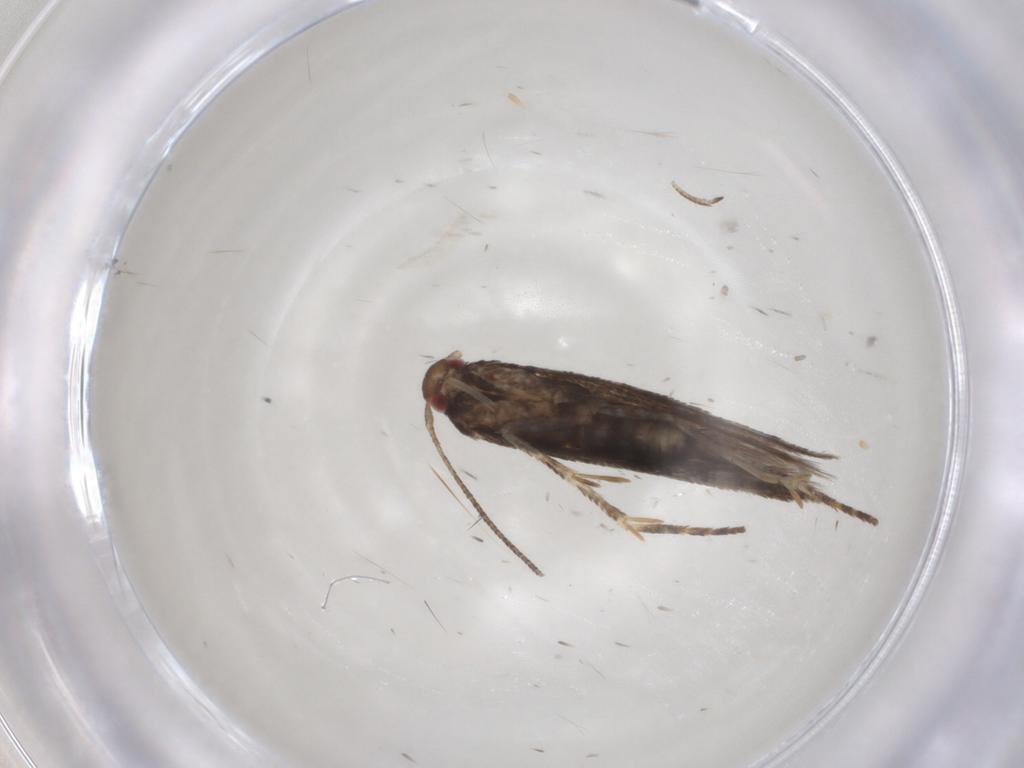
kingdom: Animalia
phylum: Arthropoda
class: Insecta
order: Lepidoptera
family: Momphidae
